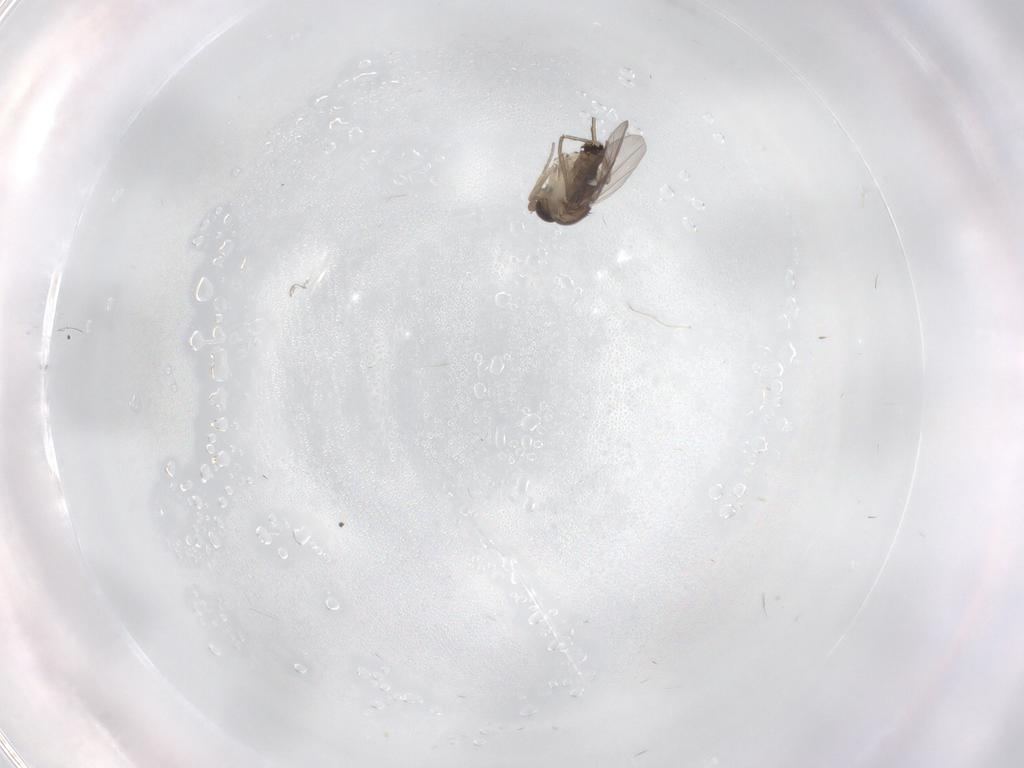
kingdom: Animalia
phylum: Arthropoda
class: Insecta
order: Diptera
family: Phoridae
